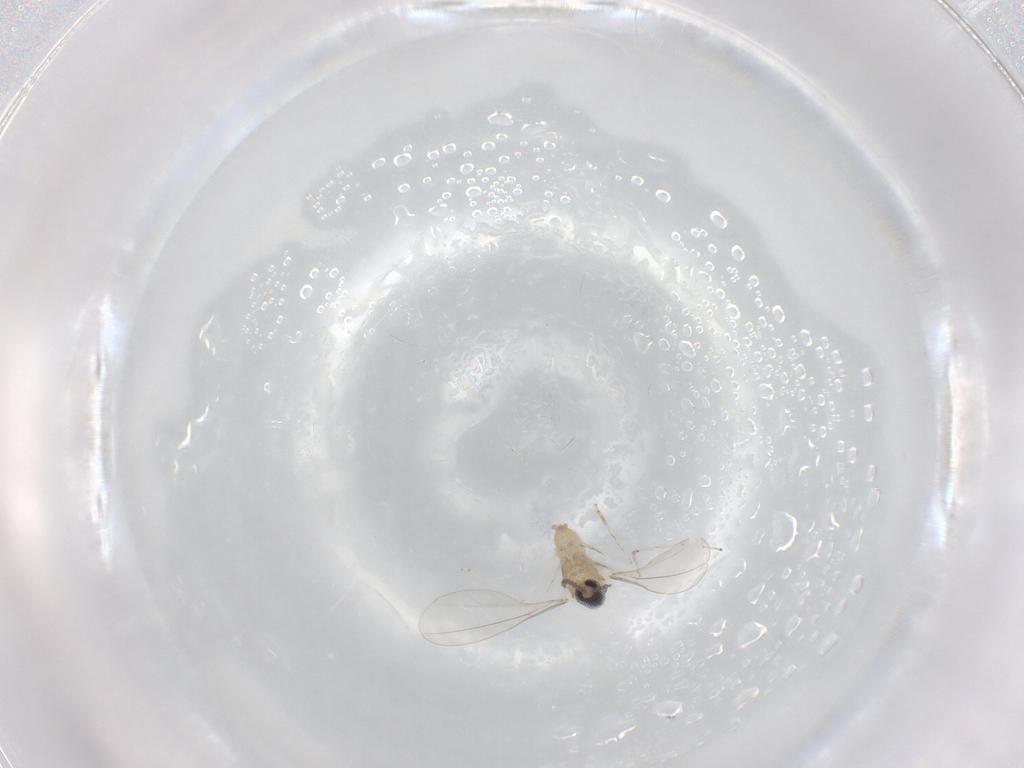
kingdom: Animalia
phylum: Arthropoda
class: Insecta
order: Diptera
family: Cecidomyiidae
